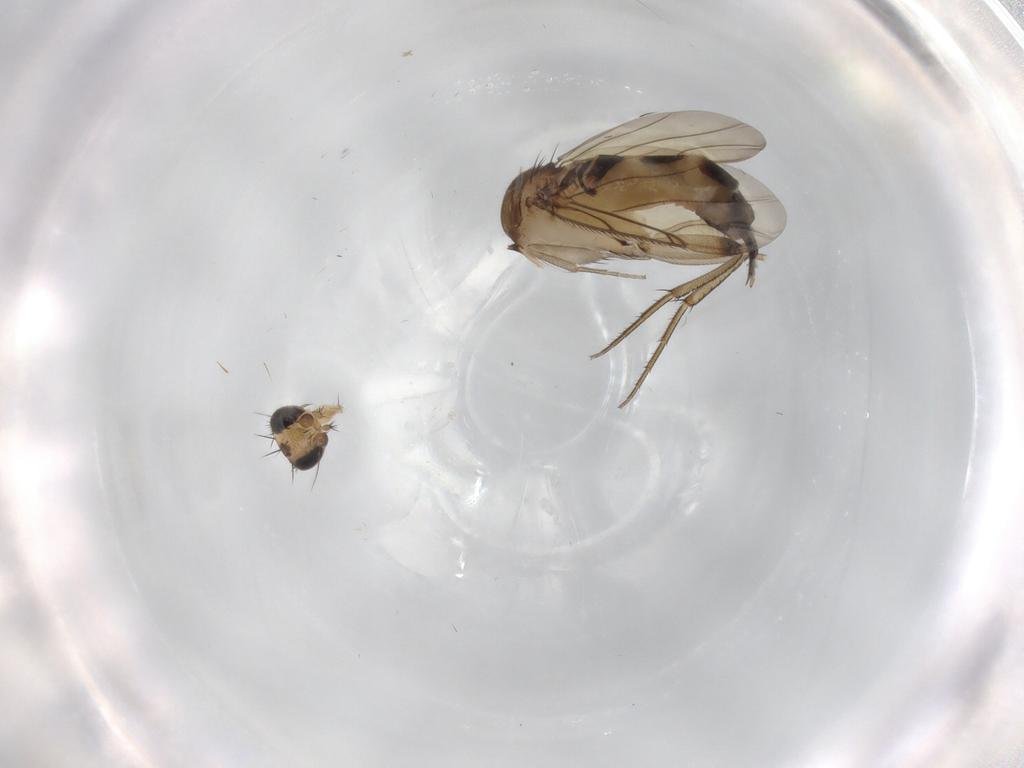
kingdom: Animalia
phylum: Arthropoda
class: Insecta
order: Diptera
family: Phoridae
